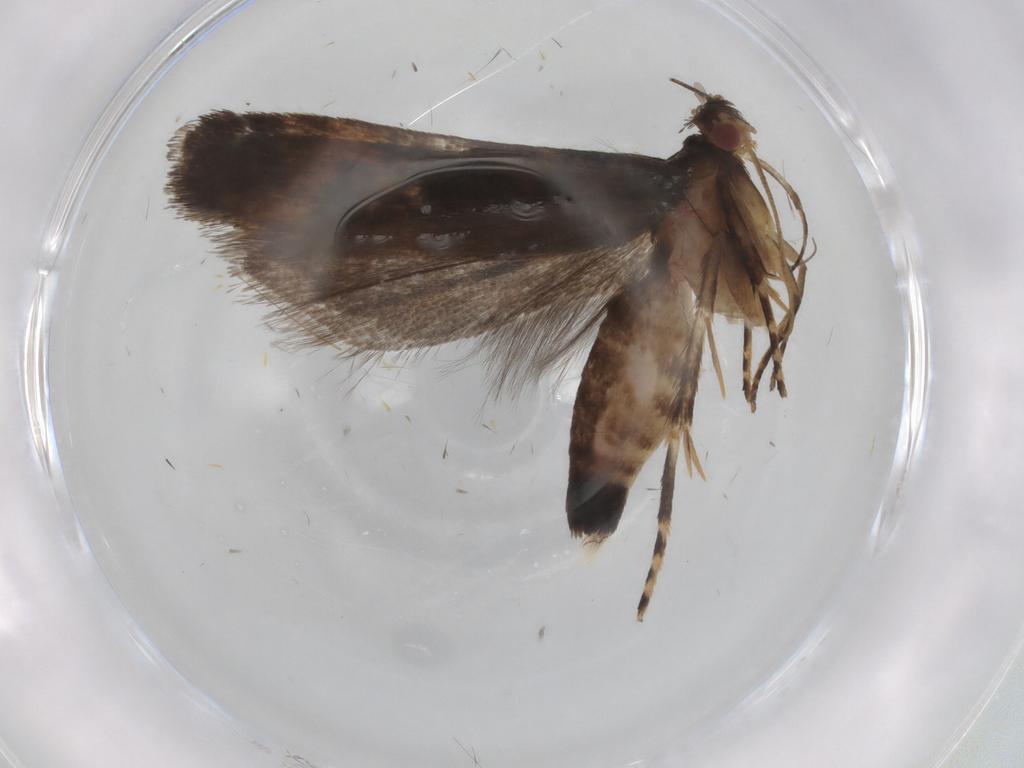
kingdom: Animalia
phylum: Arthropoda
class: Insecta
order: Lepidoptera
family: Gelechiidae
